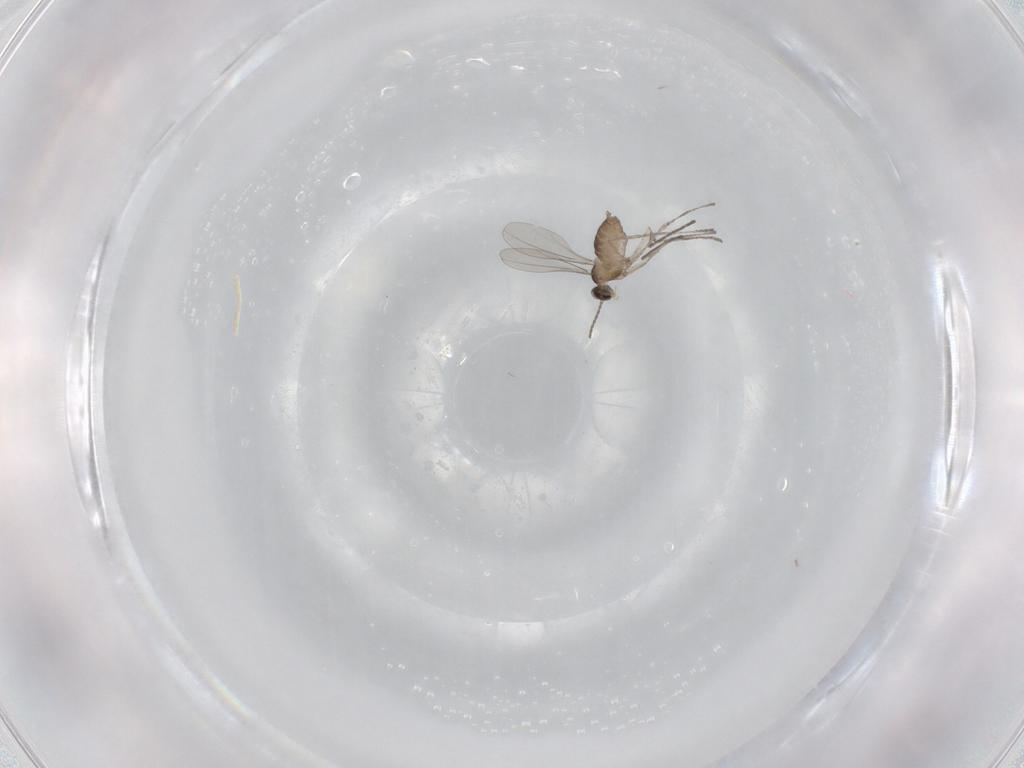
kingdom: Animalia
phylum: Arthropoda
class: Insecta
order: Diptera
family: Cecidomyiidae
